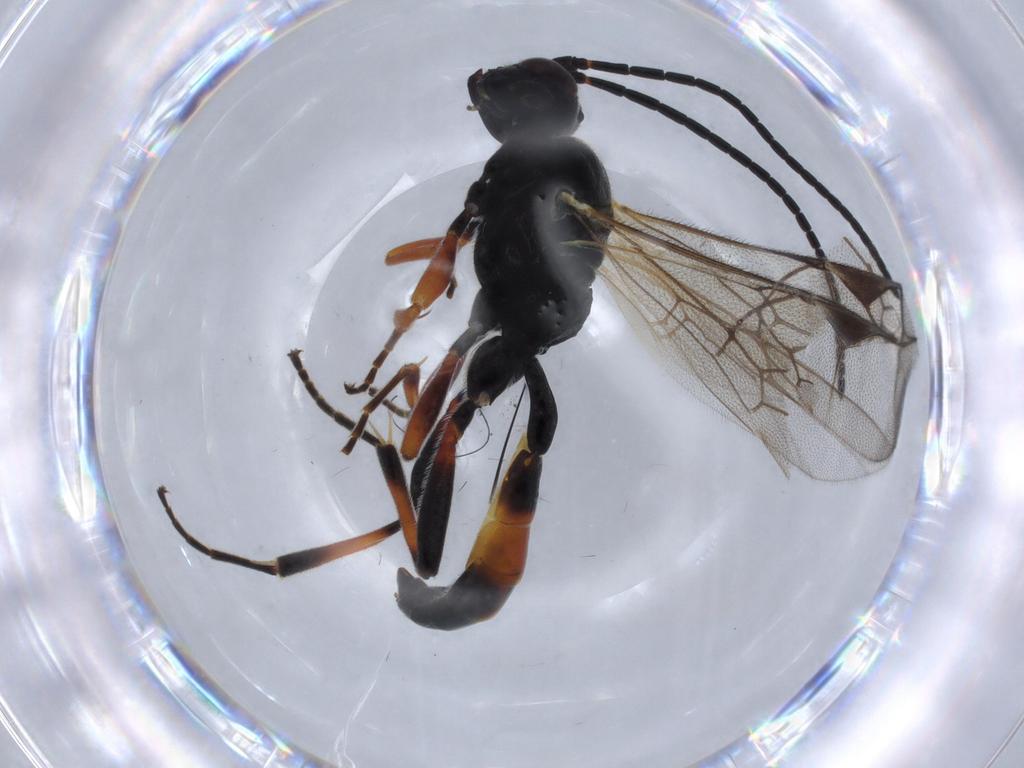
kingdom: Animalia
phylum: Arthropoda
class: Insecta
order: Hymenoptera
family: Ichneumonidae
